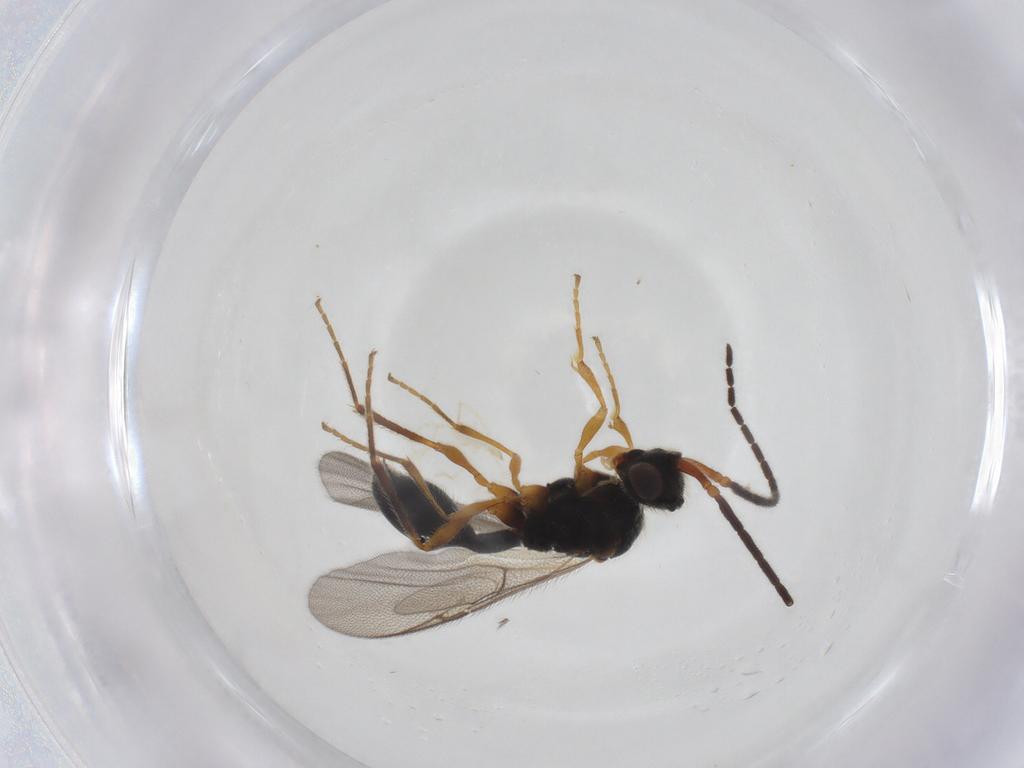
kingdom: Animalia
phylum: Arthropoda
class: Insecta
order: Hymenoptera
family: Diapriidae
